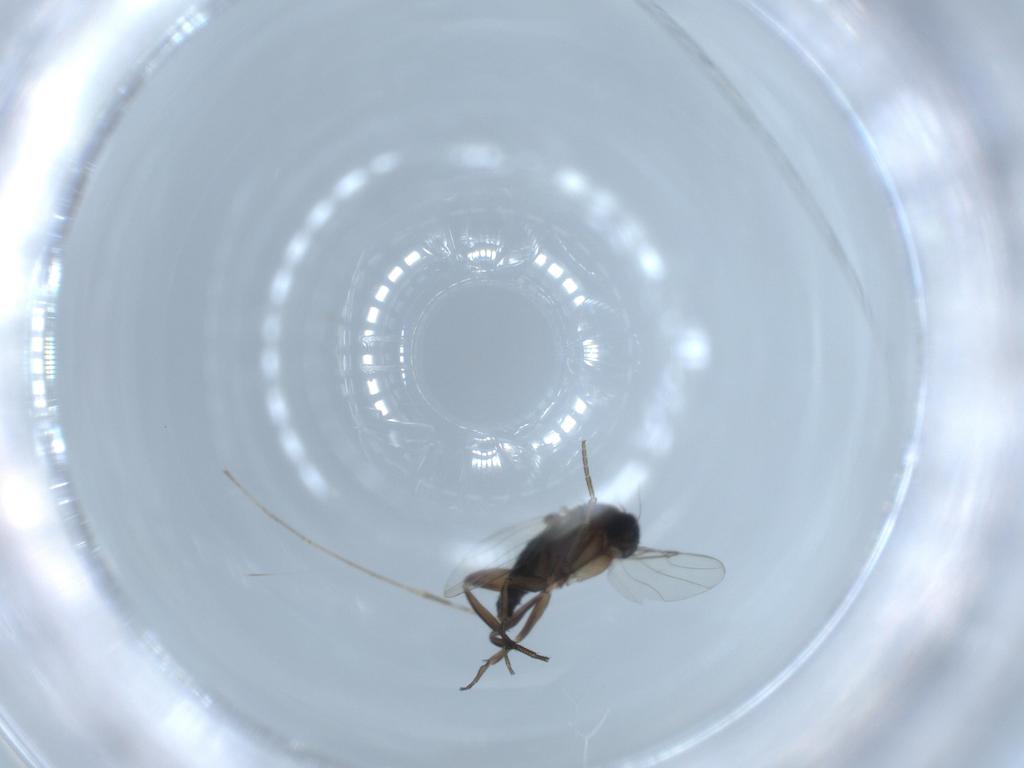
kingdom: Animalia
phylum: Arthropoda
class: Insecta
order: Diptera
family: Phoridae
